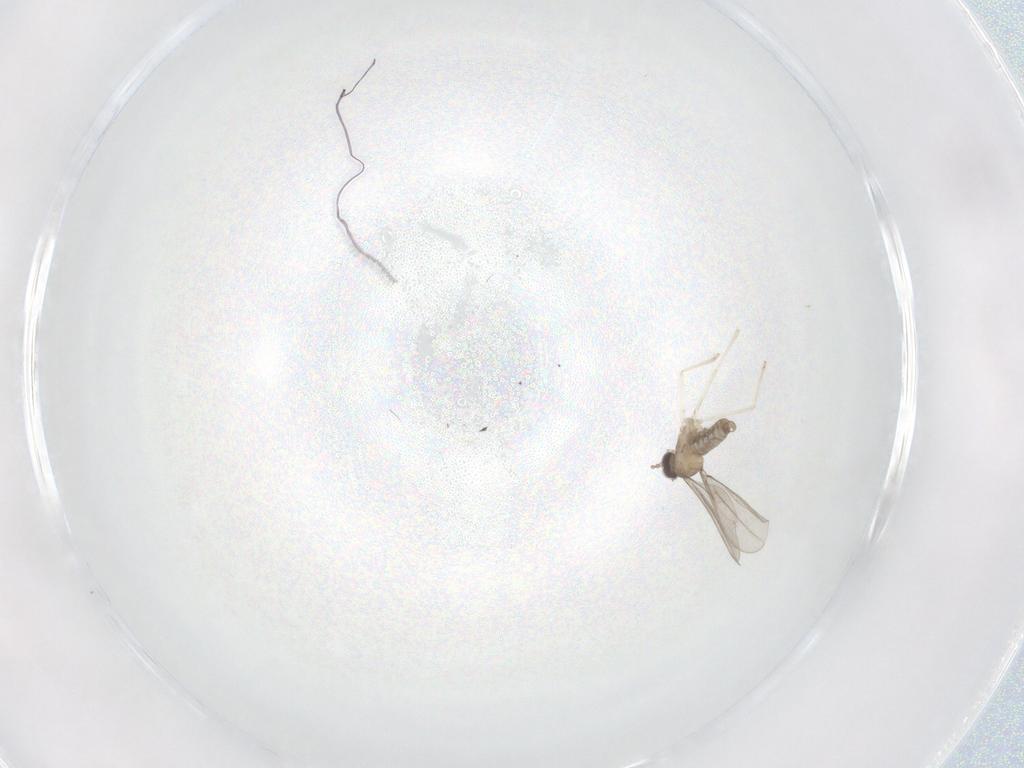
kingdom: Animalia
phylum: Arthropoda
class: Insecta
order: Diptera
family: Cecidomyiidae
